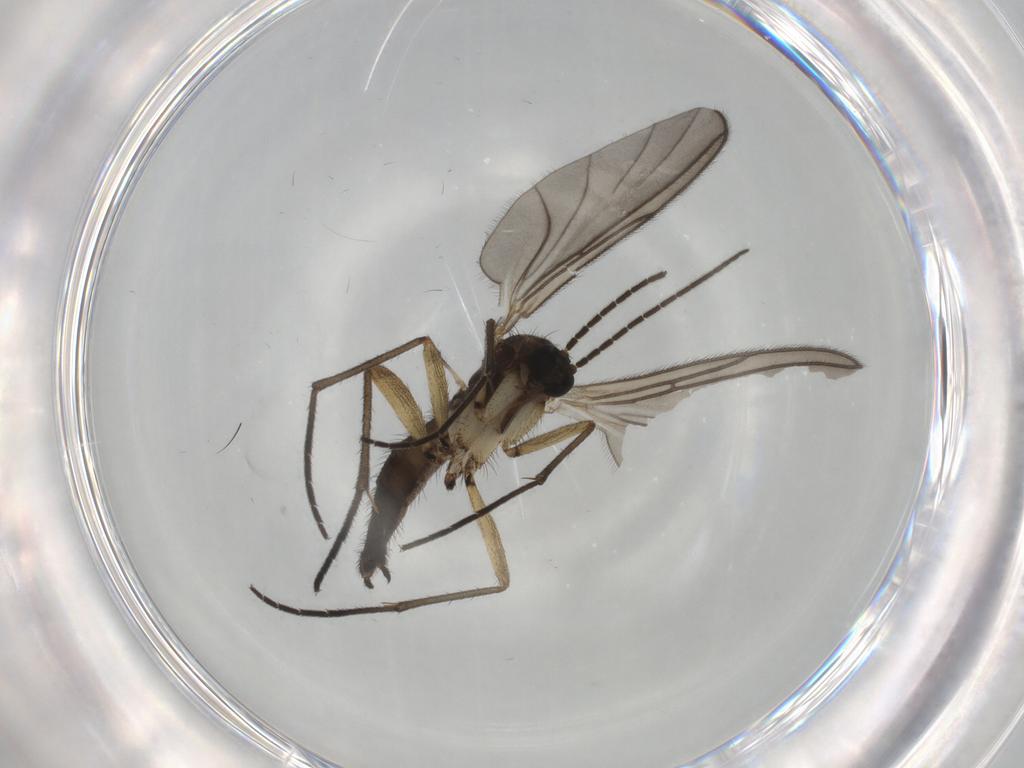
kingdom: Animalia
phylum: Arthropoda
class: Insecta
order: Diptera
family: Sciaridae
